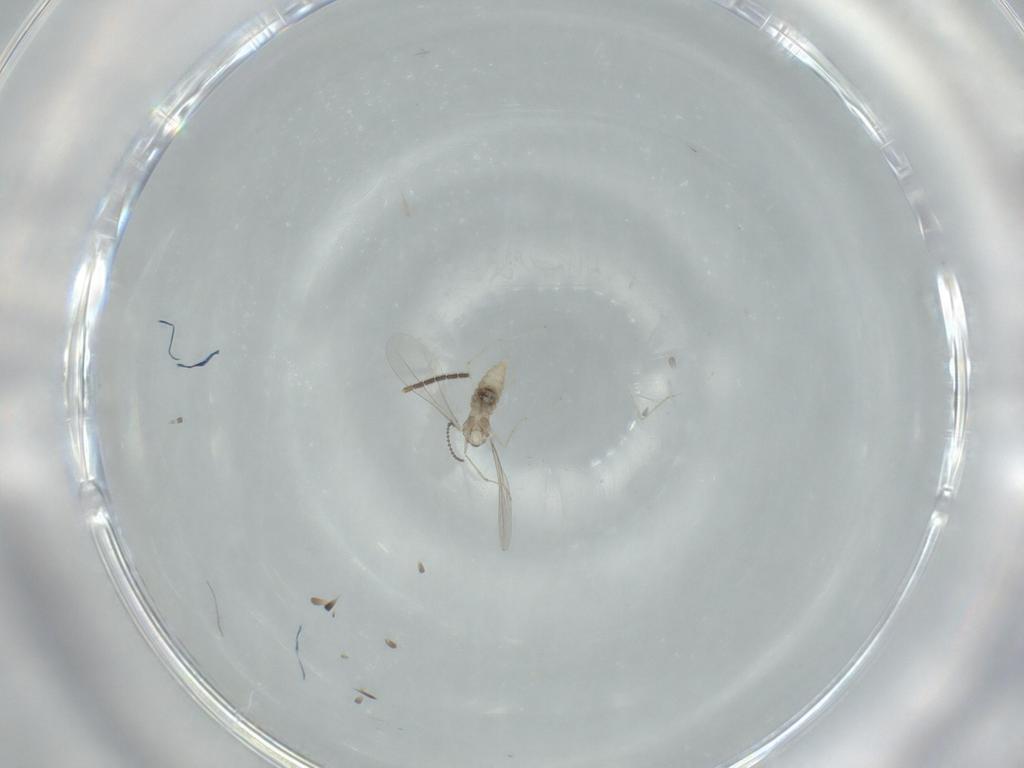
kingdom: Animalia
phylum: Arthropoda
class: Insecta
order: Diptera
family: Sciaridae
